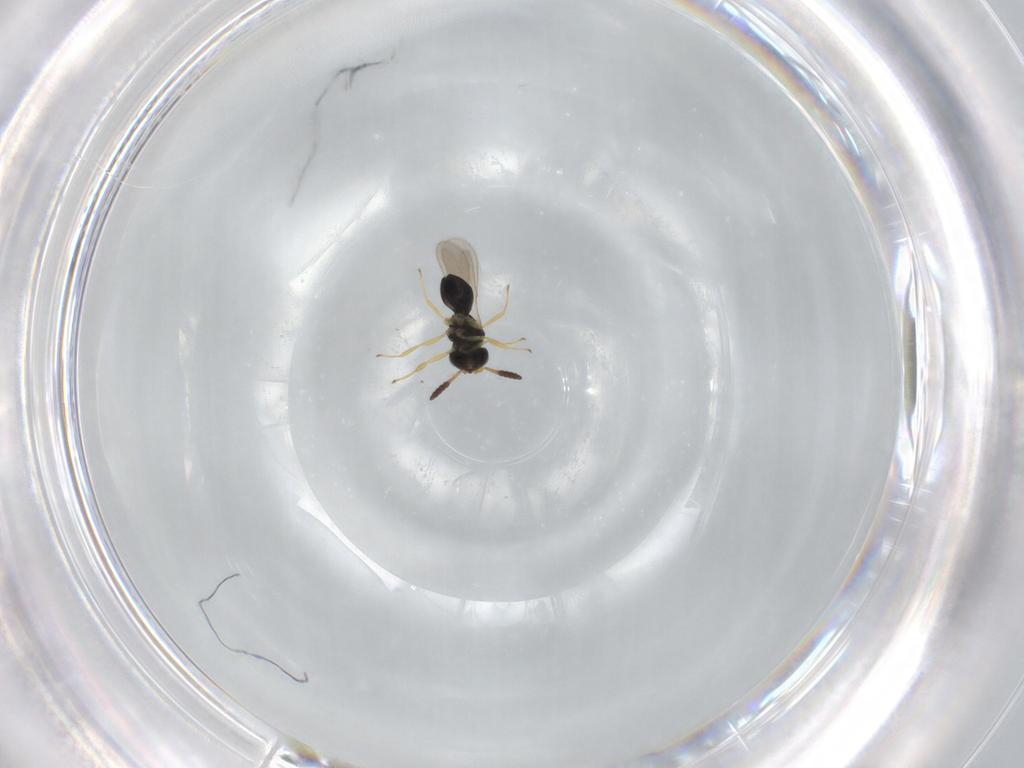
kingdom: Animalia
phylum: Arthropoda
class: Insecta
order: Hymenoptera
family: Scelionidae
